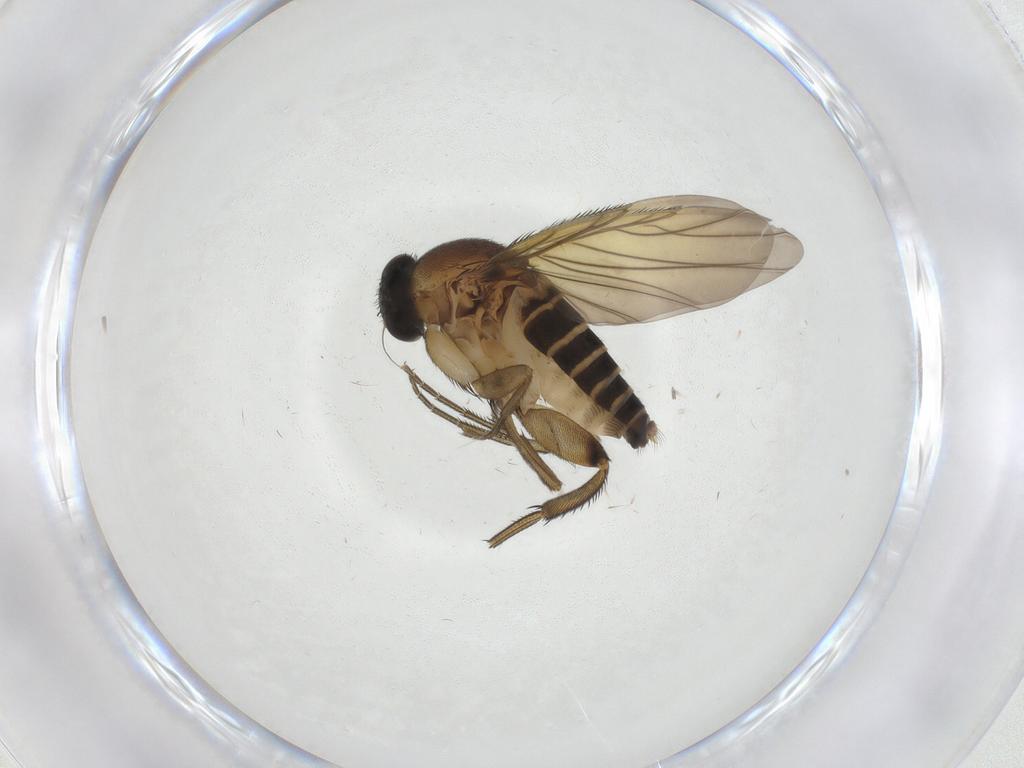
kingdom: Animalia
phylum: Arthropoda
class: Insecta
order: Diptera
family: Phoridae
